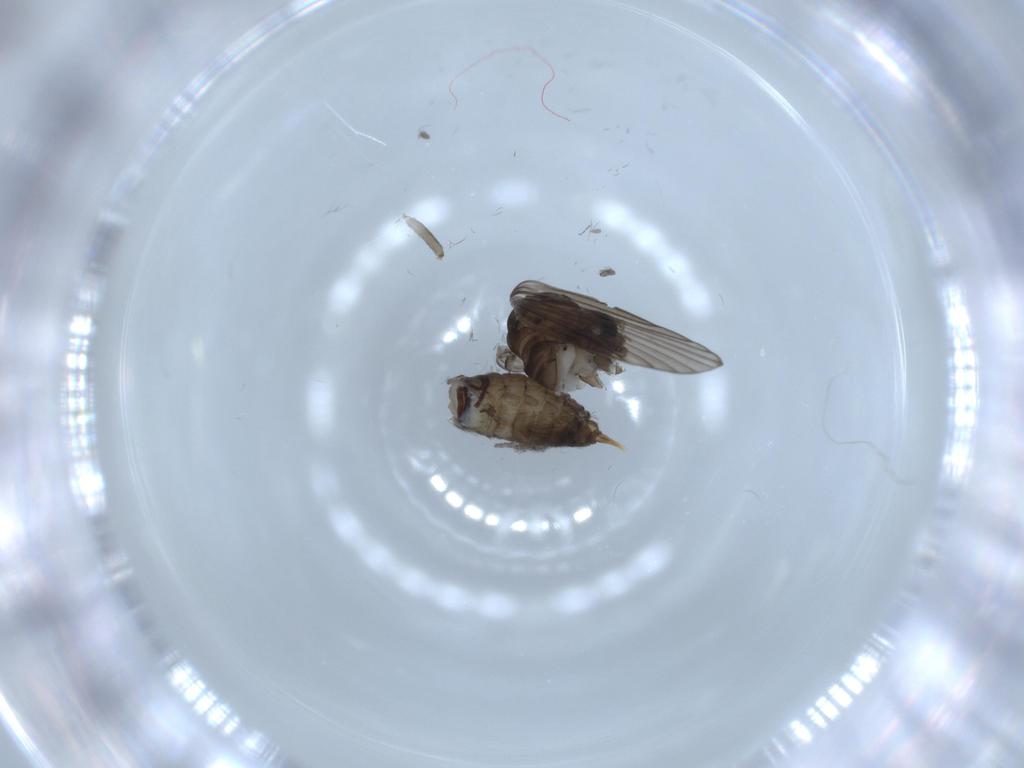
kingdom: Animalia
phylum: Arthropoda
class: Insecta
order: Diptera
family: Psychodidae
